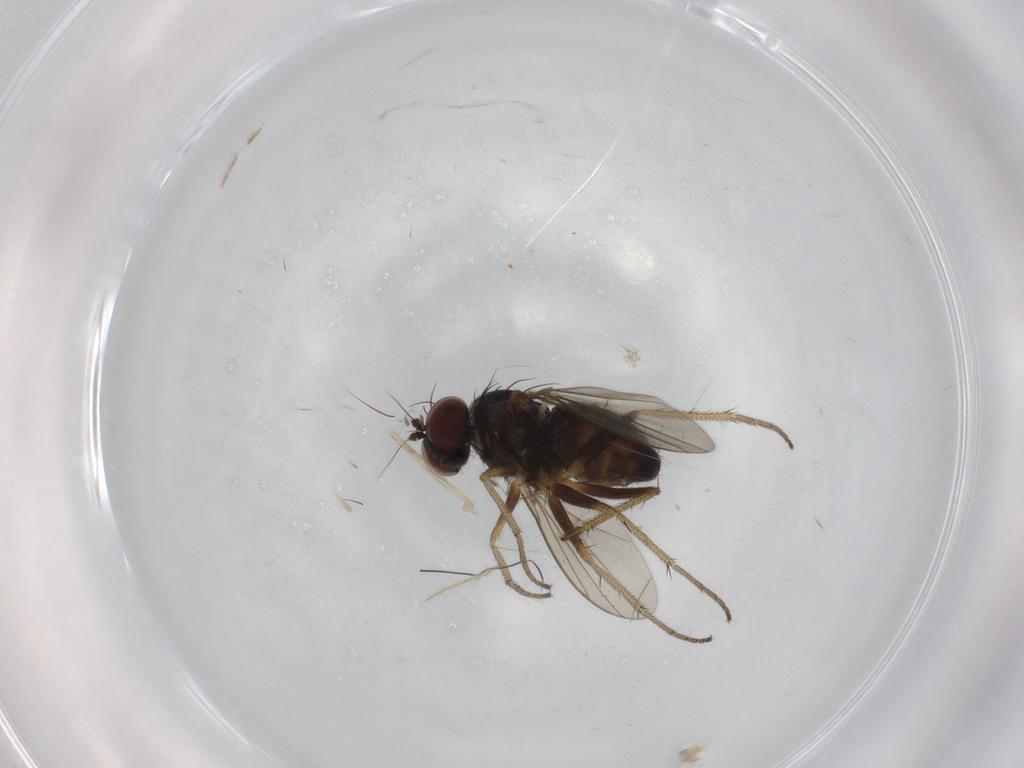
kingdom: Animalia
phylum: Arthropoda
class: Insecta
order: Diptera
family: Cecidomyiidae
